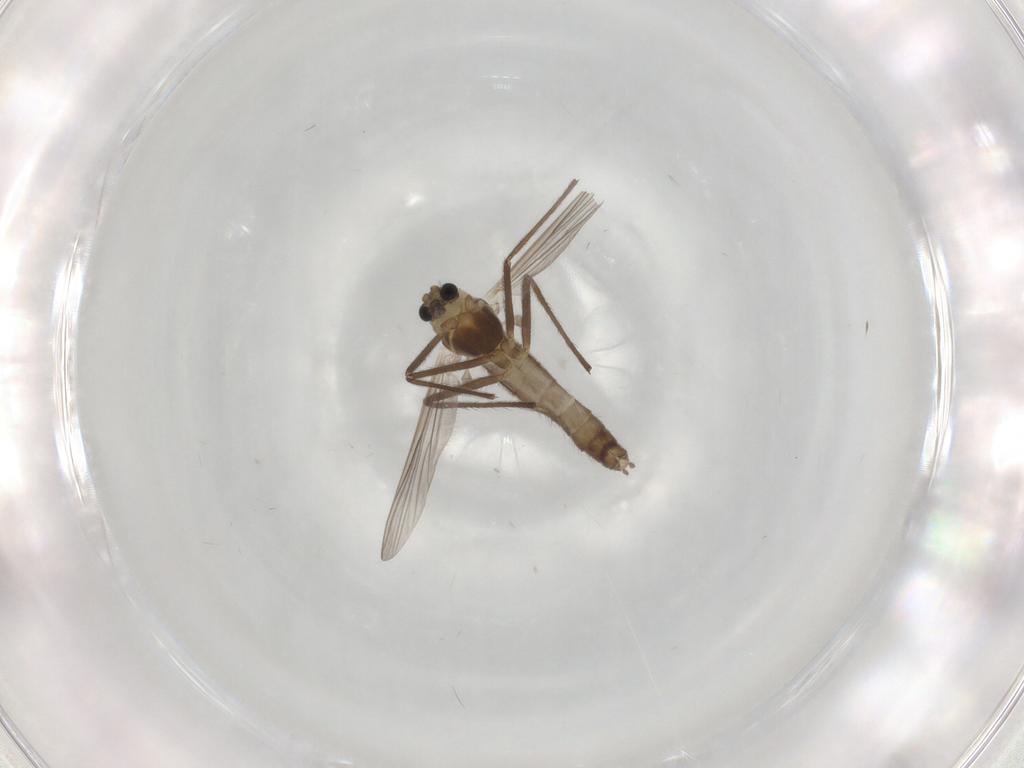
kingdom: Animalia
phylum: Arthropoda
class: Insecta
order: Diptera
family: Chironomidae
